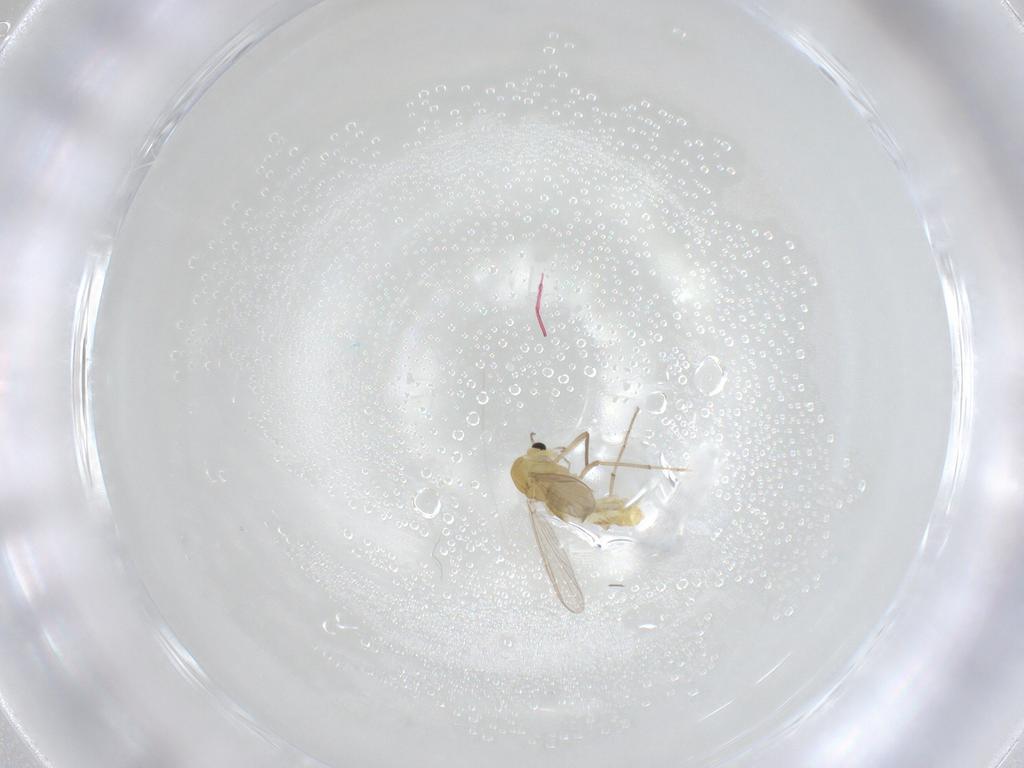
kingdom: Animalia
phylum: Arthropoda
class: Insecta
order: Diptera
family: Chironomidae
